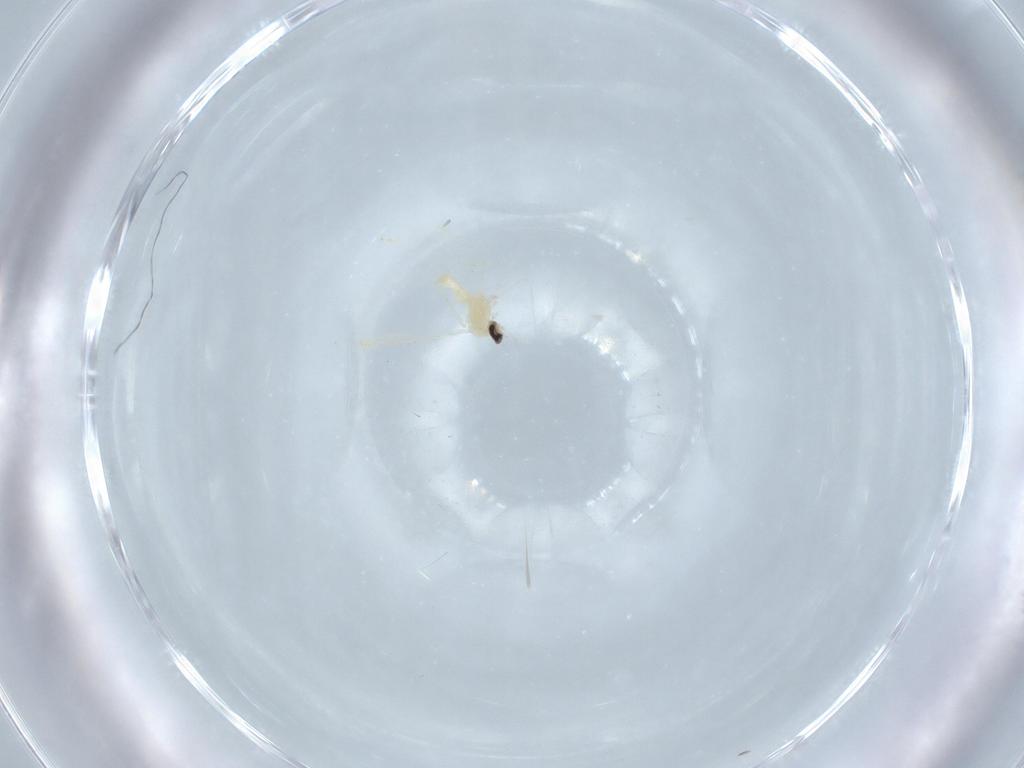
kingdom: Animalia
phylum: Arthropoda
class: Insecta
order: Diptera
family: Cecidomyiidae
